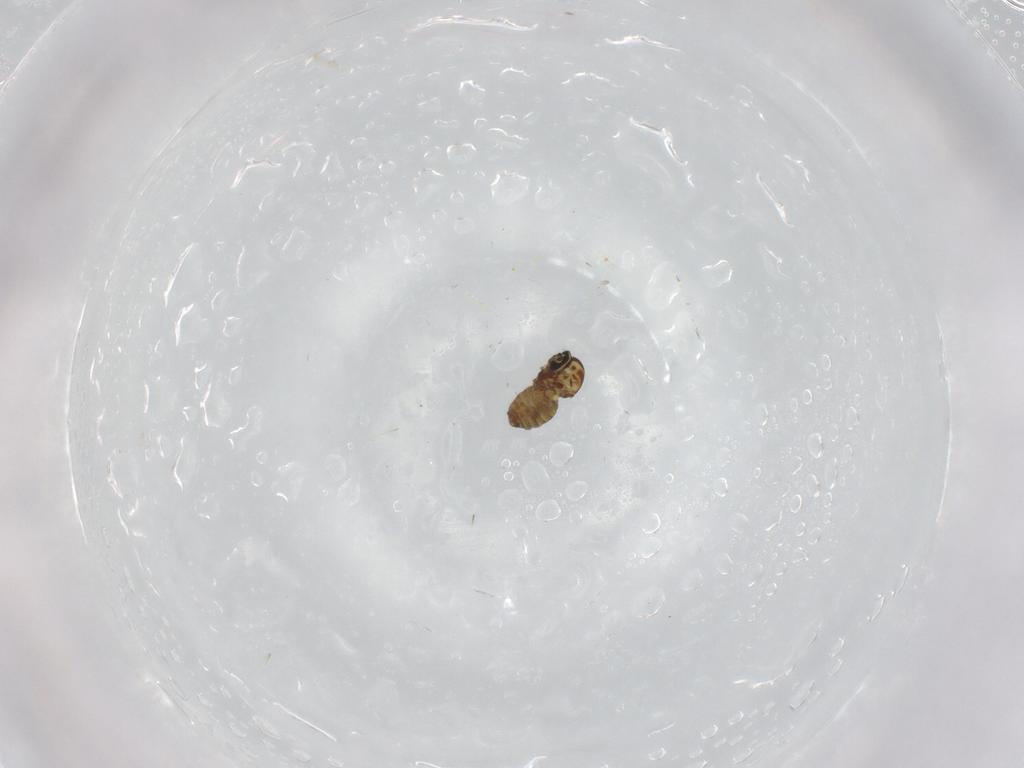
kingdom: Animalia
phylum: Arthropoda
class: Insecta
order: Diptera
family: Ceratopogonidae
